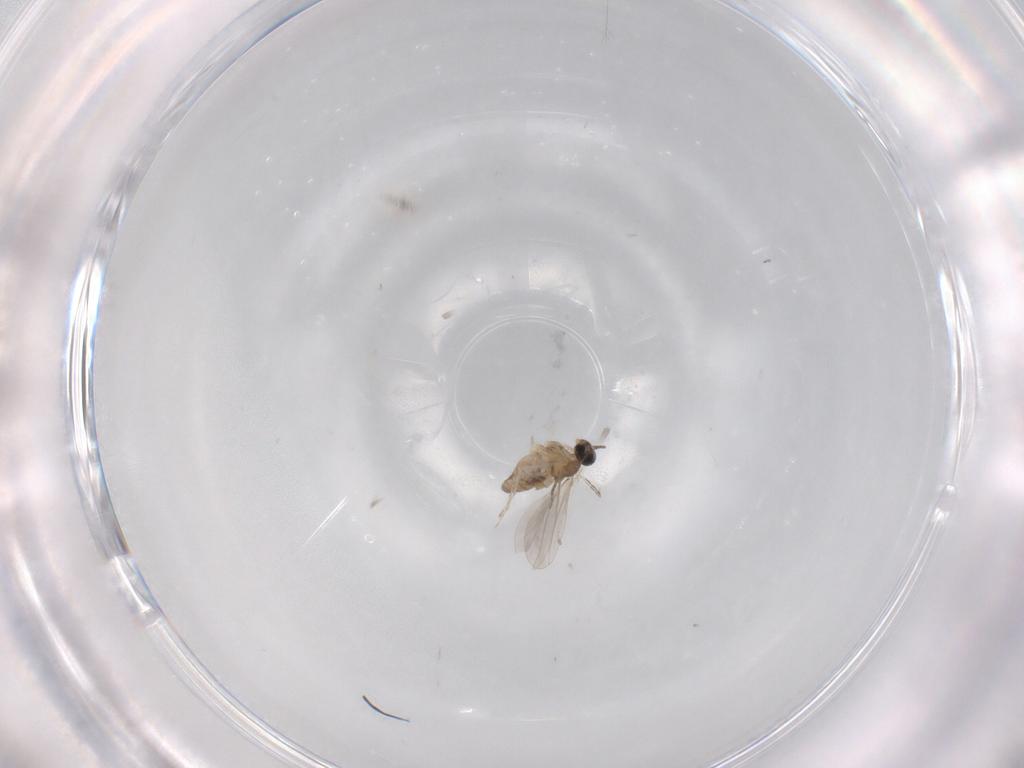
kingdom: Animalia
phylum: Arthropoda
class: Insecta
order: Diptera
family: Cecidomyiidae
